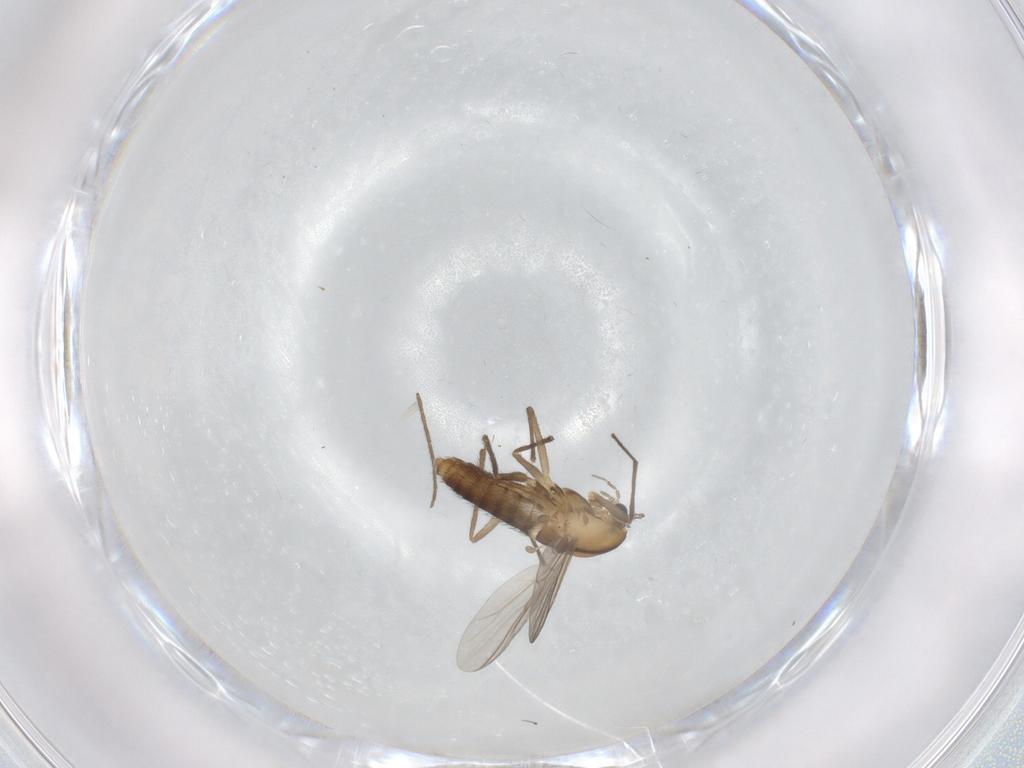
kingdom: Animalia
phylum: Arthropoda
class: Insecta
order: Diptera
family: Chironomidae
